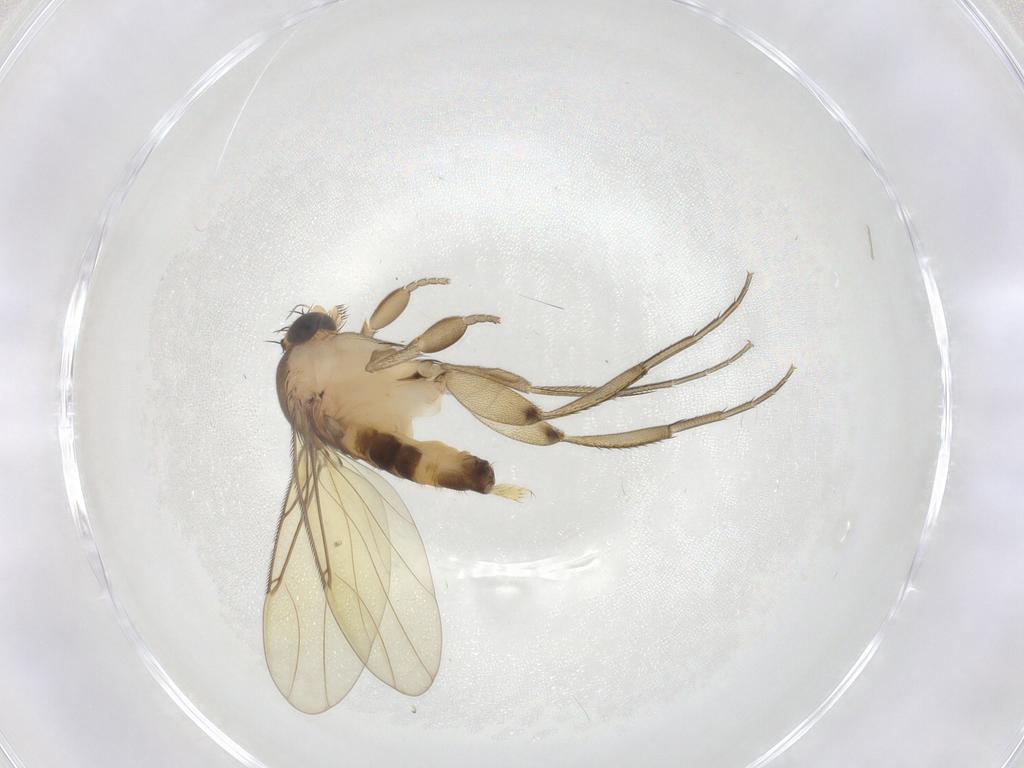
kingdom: Animalia
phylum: Arthropoda
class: Insecta
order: Diptera
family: Phoridae
